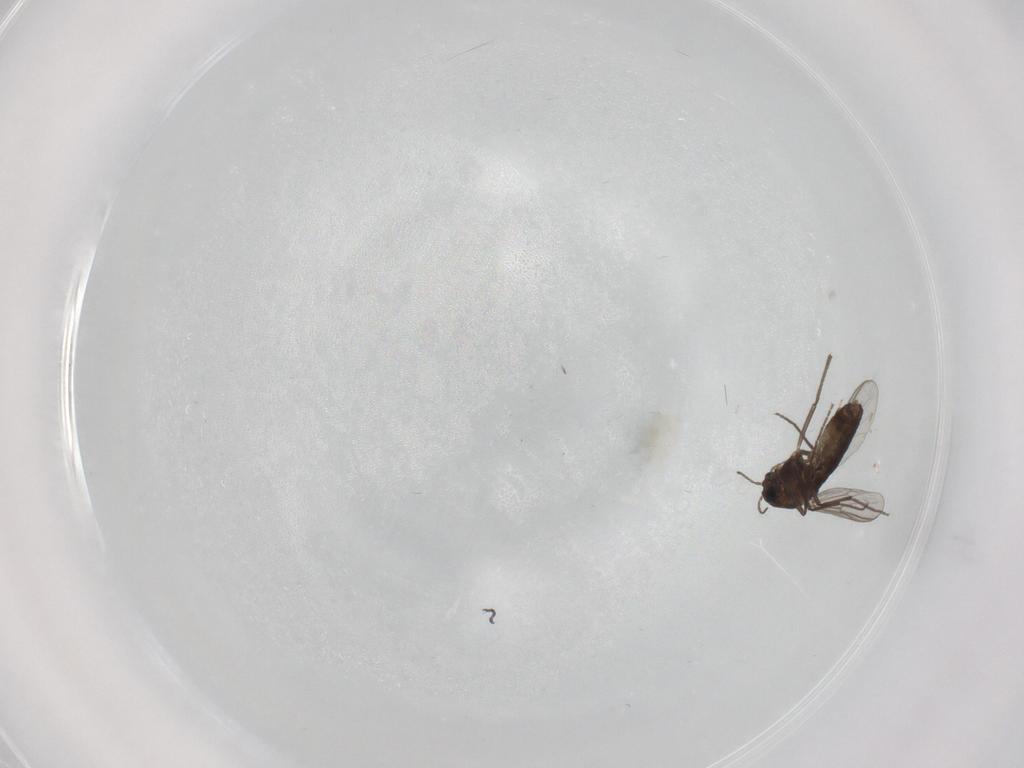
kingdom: Animalia
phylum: Arthropoda
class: Insecta
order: Diptera
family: Chironomidae
